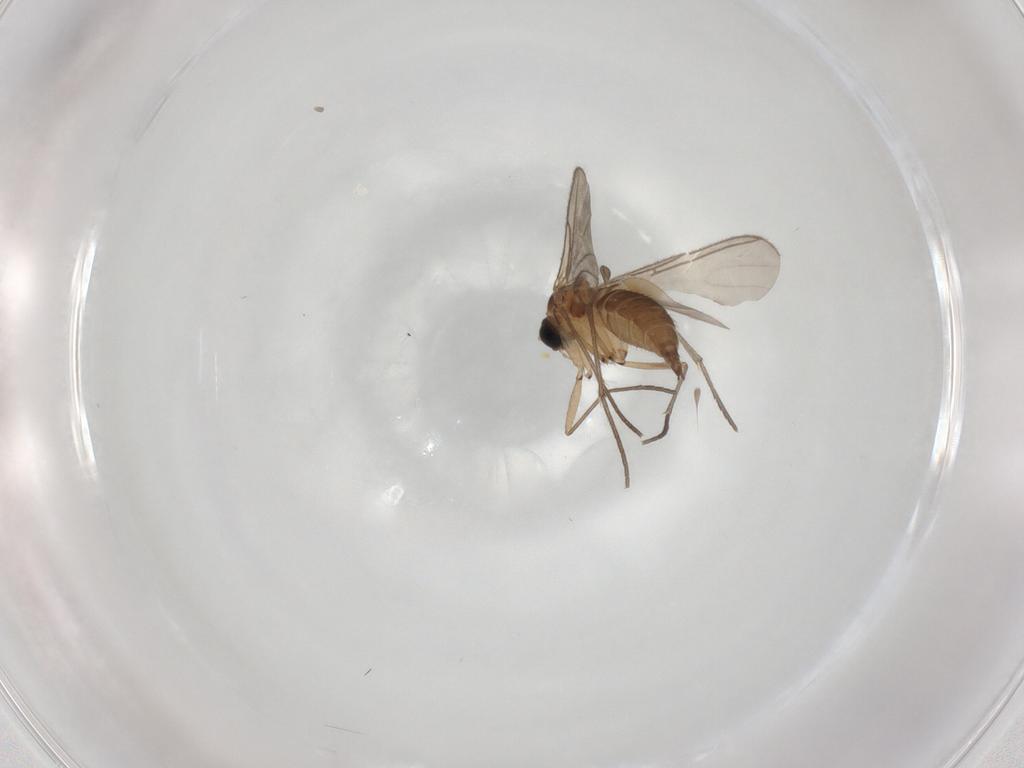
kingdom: Animalia
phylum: Arthropoda
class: Insecta
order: Diptera
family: Sciaridae
